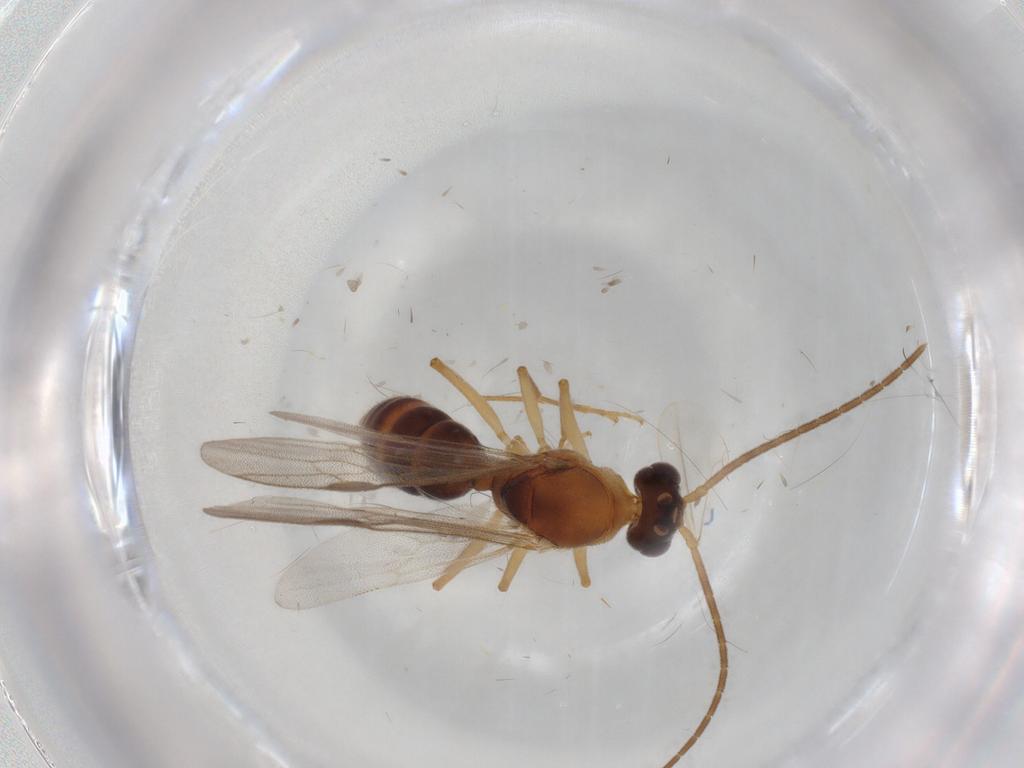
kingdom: Animalia
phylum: Arthropoda
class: Insecta
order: Hymenoptera
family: Formicidae
